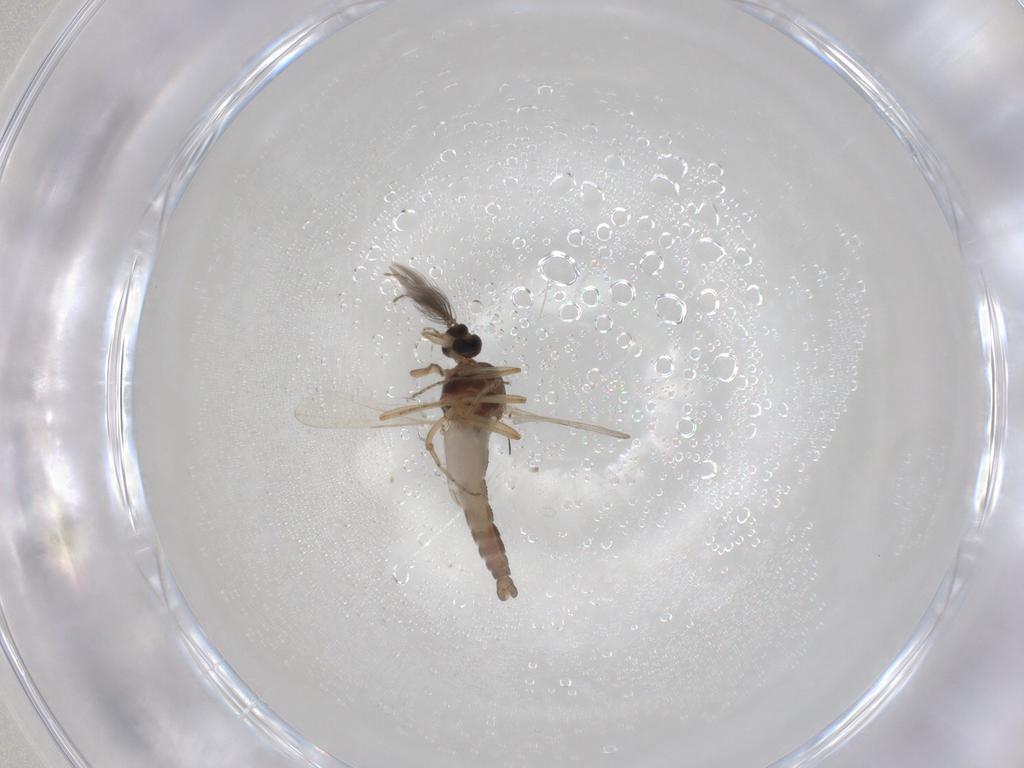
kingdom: Animalia
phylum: Arthropoda
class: Insecta
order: Diptera
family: Ceratopogonidae
